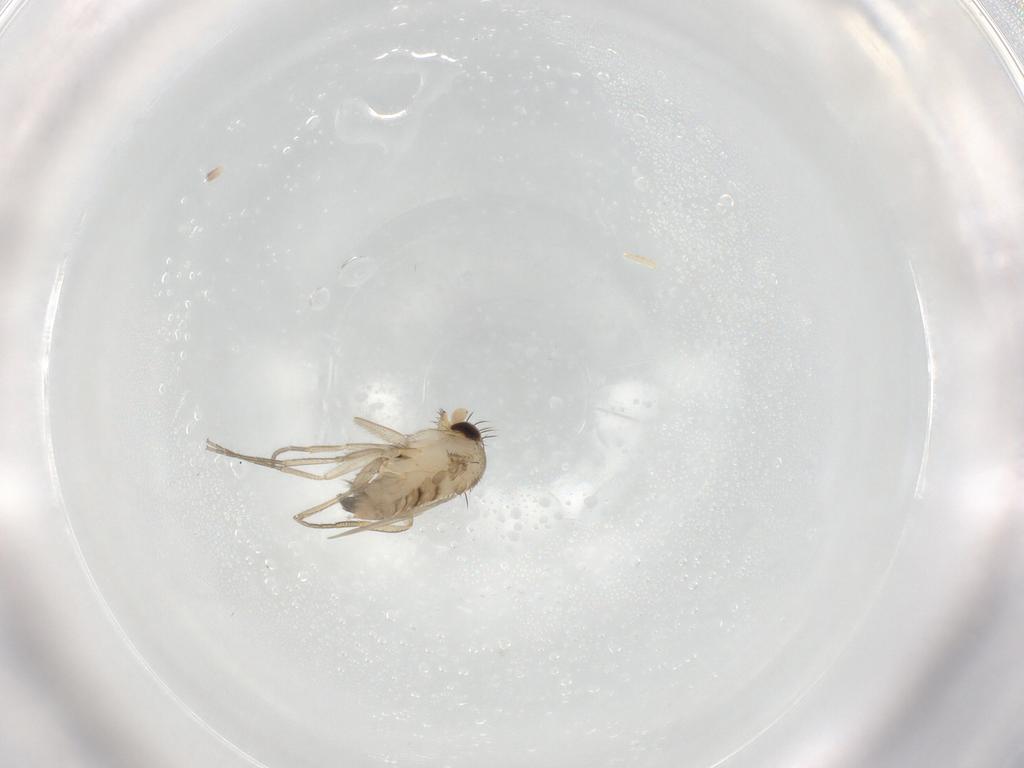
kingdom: Animalia
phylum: Arthropoda
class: Insecta
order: Diptera
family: Phoridae
